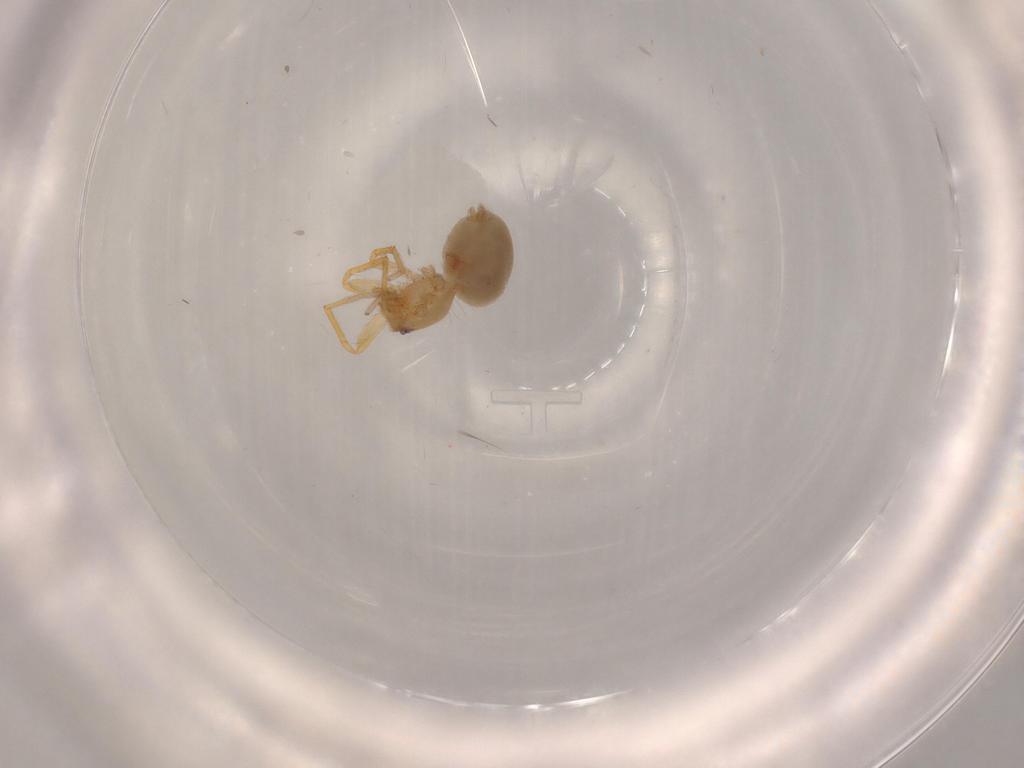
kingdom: Animalia
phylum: Arthropoda
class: Arachnida
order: Araneae
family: Oonopidae
